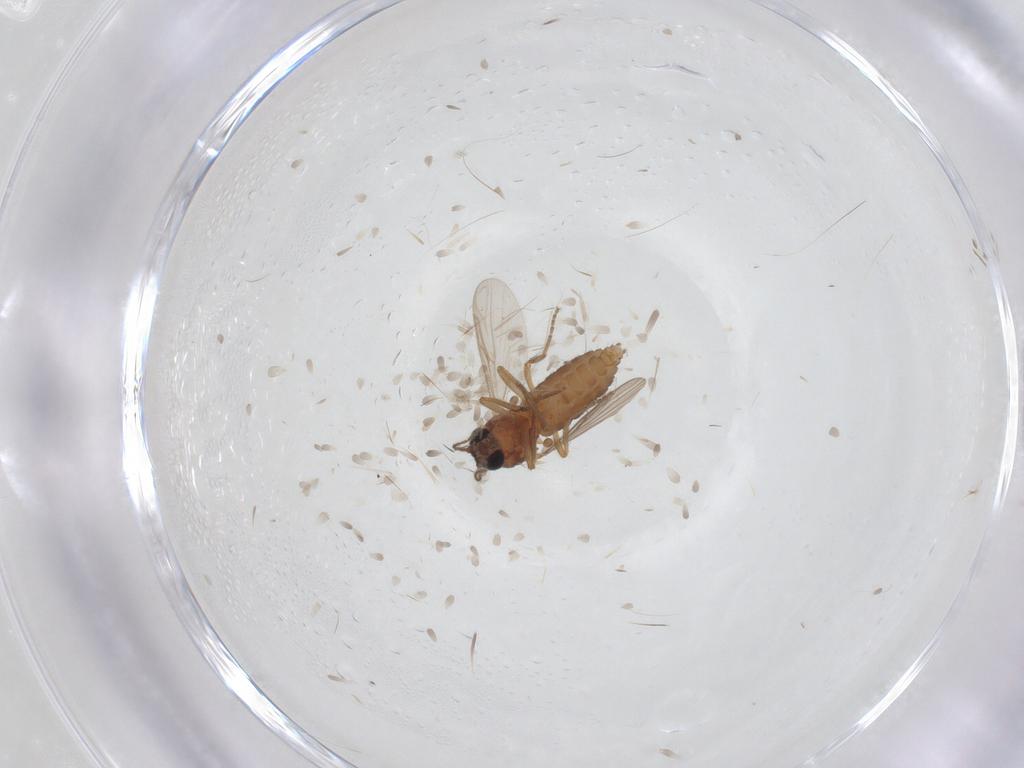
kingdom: Animalia
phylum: Arthropoda
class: Insecta
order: Diptera
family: Ceratopogonidae
